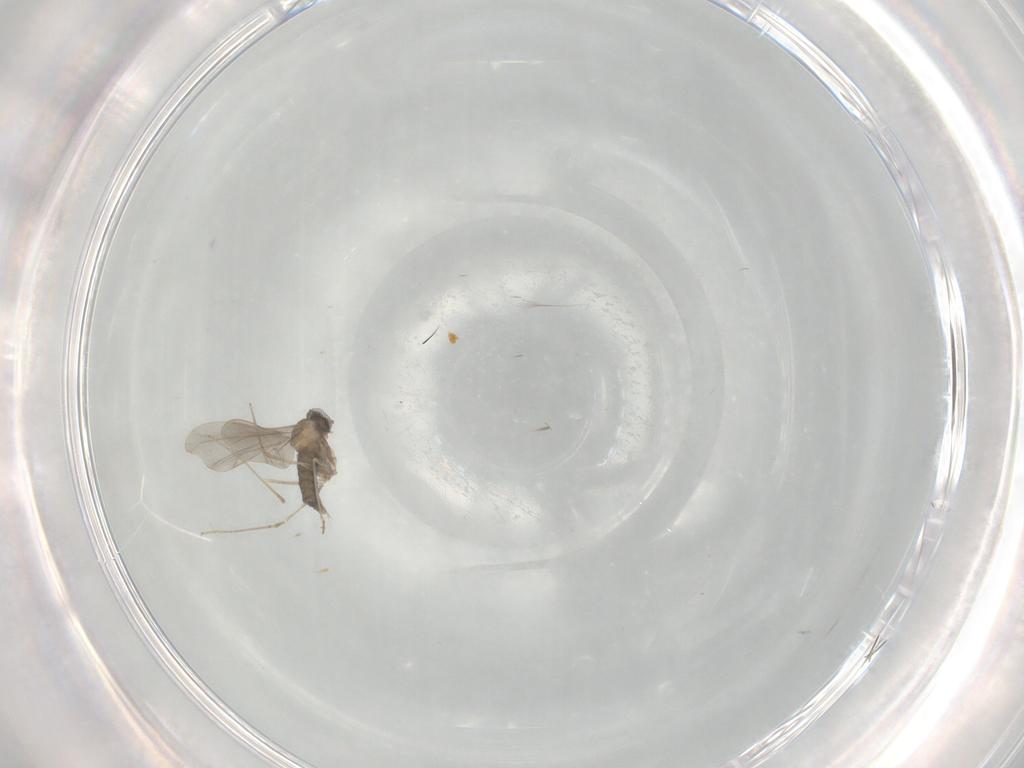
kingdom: Animalia
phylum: Arthropoda
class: Insecta
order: Diptera
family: Cecidomyiidae
